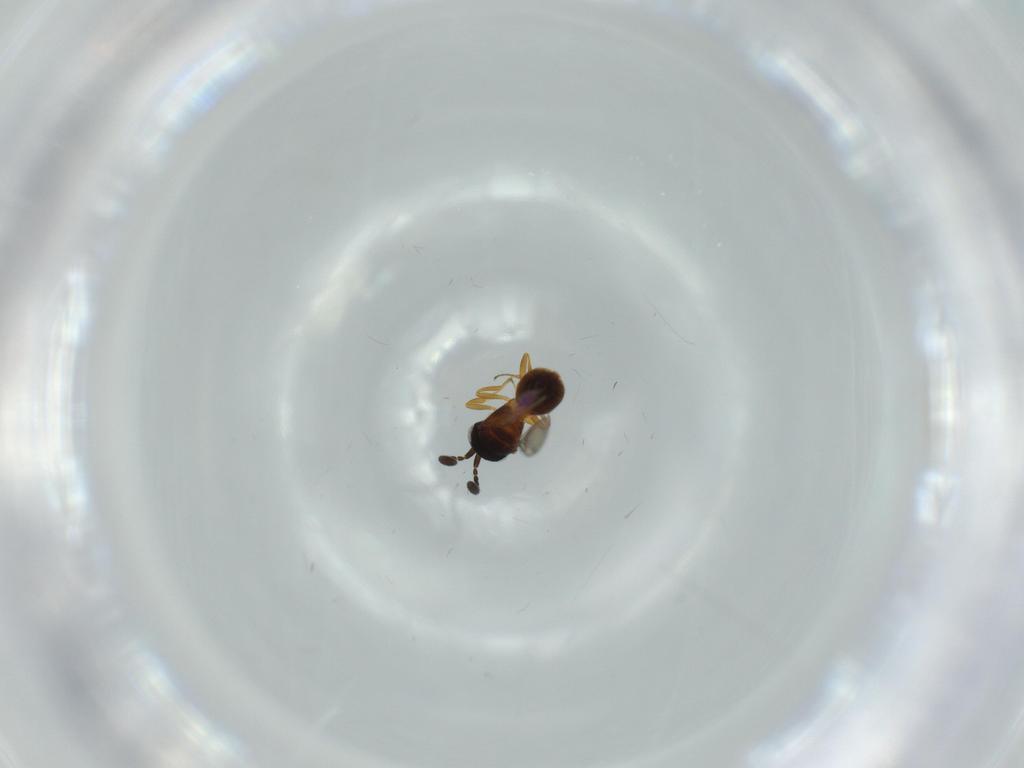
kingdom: Animalia
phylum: Arthropoda
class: Insecta
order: Hymenoptera
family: Scelionidae
